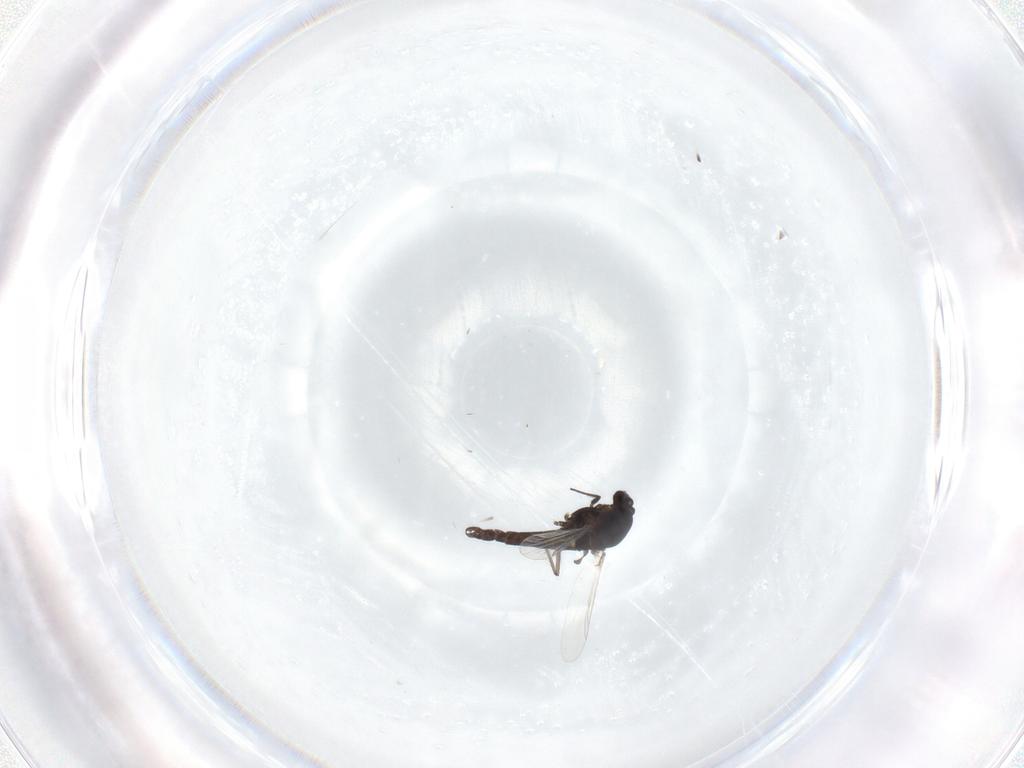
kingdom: Animalia
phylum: Arthropoda
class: Insecta
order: Diptera
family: Chironomidae
